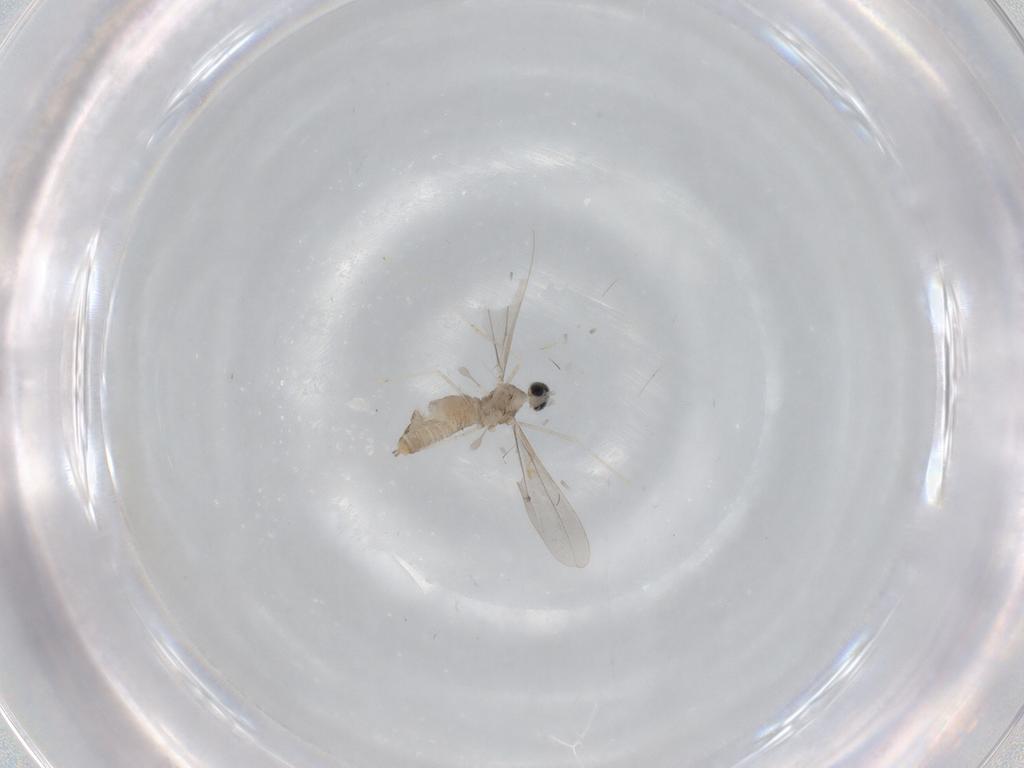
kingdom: Animalia
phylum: Arthropoda
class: Insecta
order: Diptera
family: Cecidomyiidae
